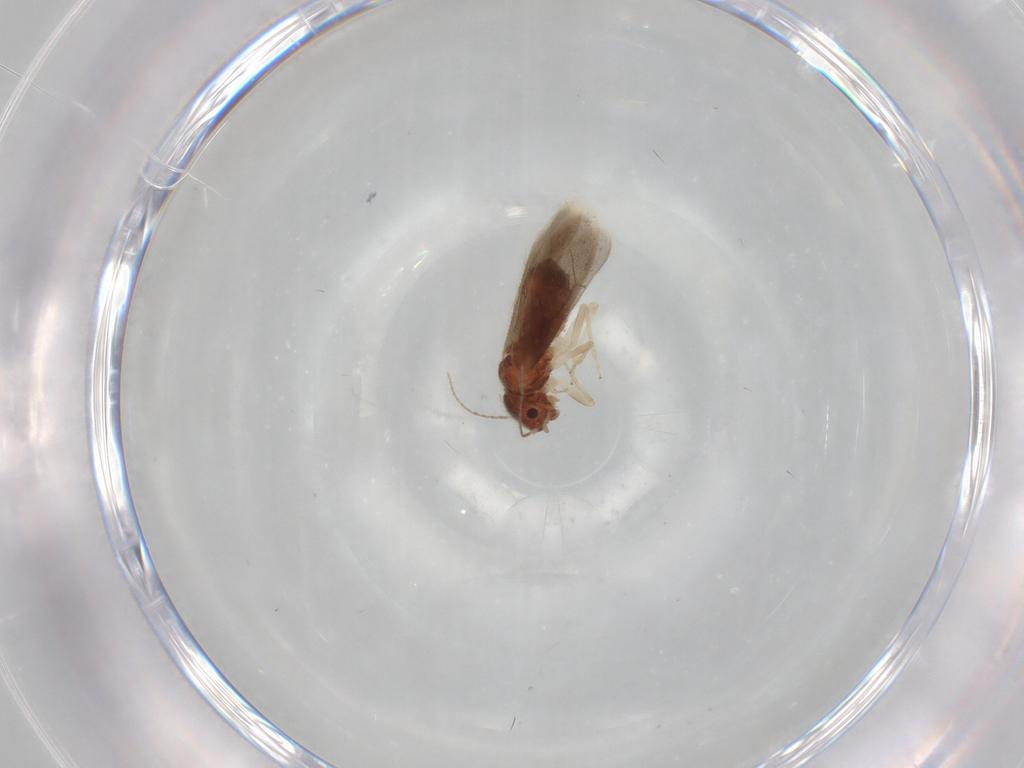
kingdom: Animalia
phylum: Arthropoda
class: Insecta
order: Psocodea
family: Archipsocidae
